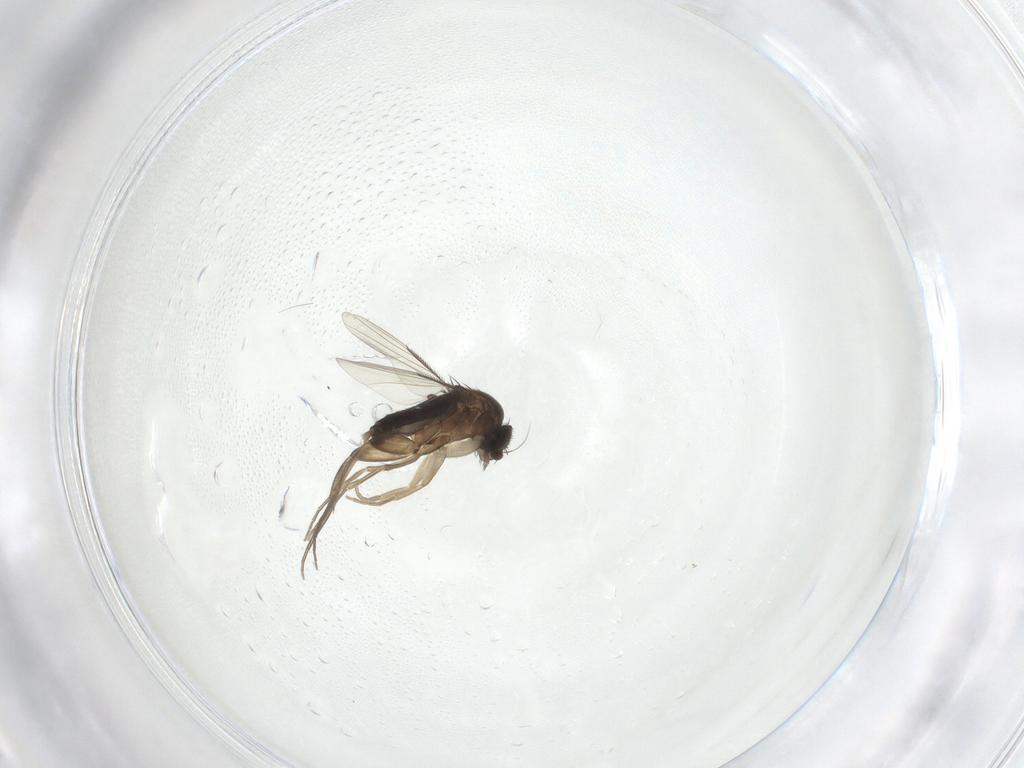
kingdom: Animalia
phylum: Arthropoda
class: Insecta
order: Diptera
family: Phoridae
